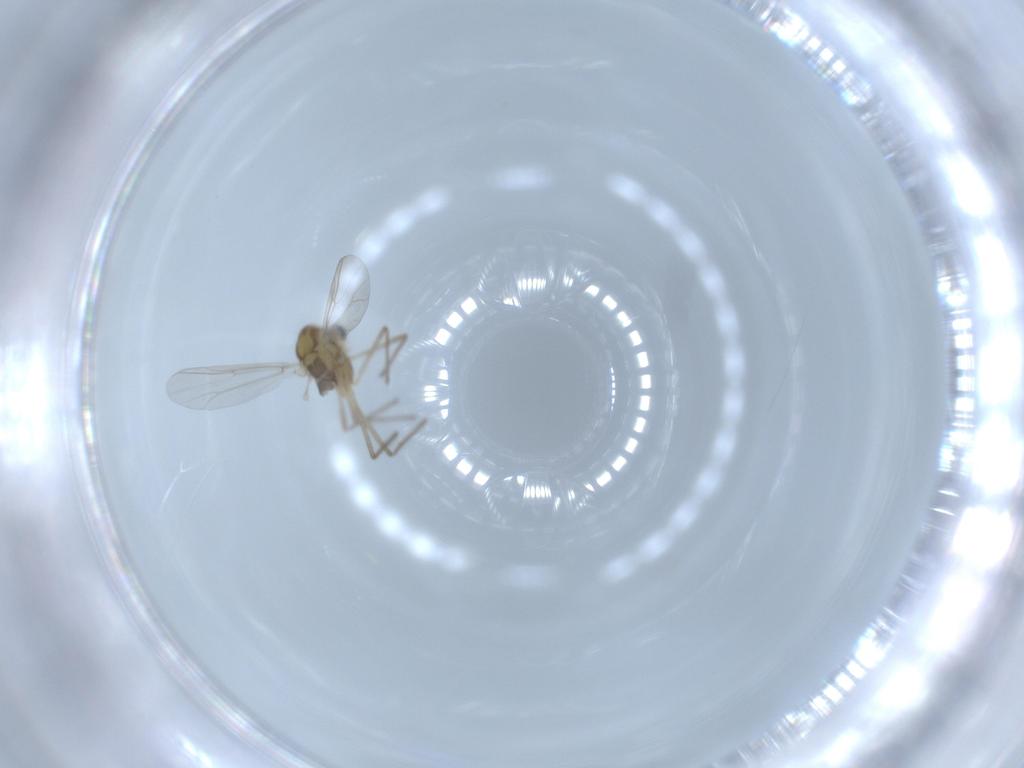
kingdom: Animalia
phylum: Arthropoda
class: Insecta
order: Diptera
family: Chironomidae
